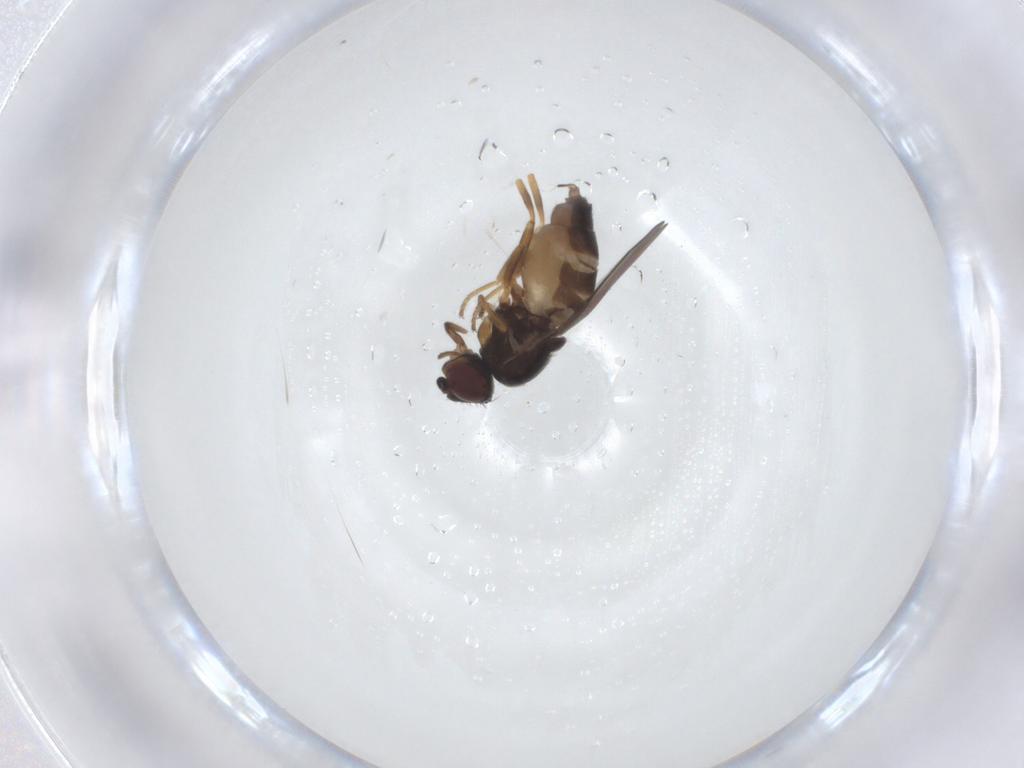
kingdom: Animalia
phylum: Arthropoda
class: Insecta
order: Diptera
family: Chloropidae
